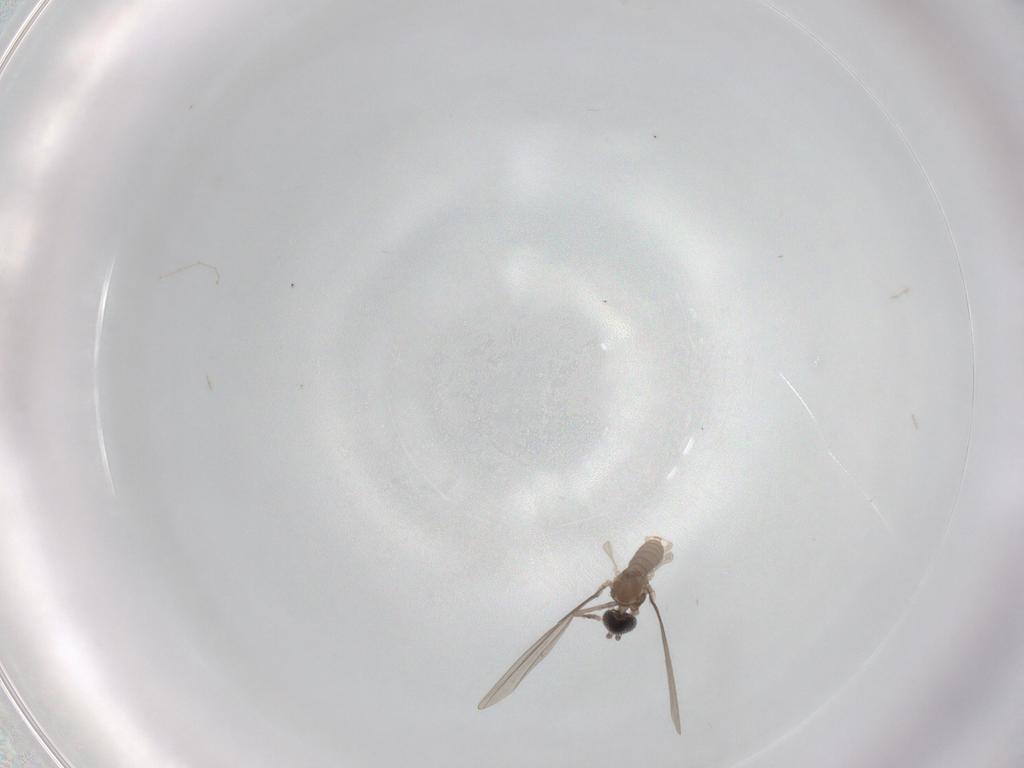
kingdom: Animalia
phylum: Arthropoda
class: Insecta
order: Diptera
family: Cecidomyiidae
